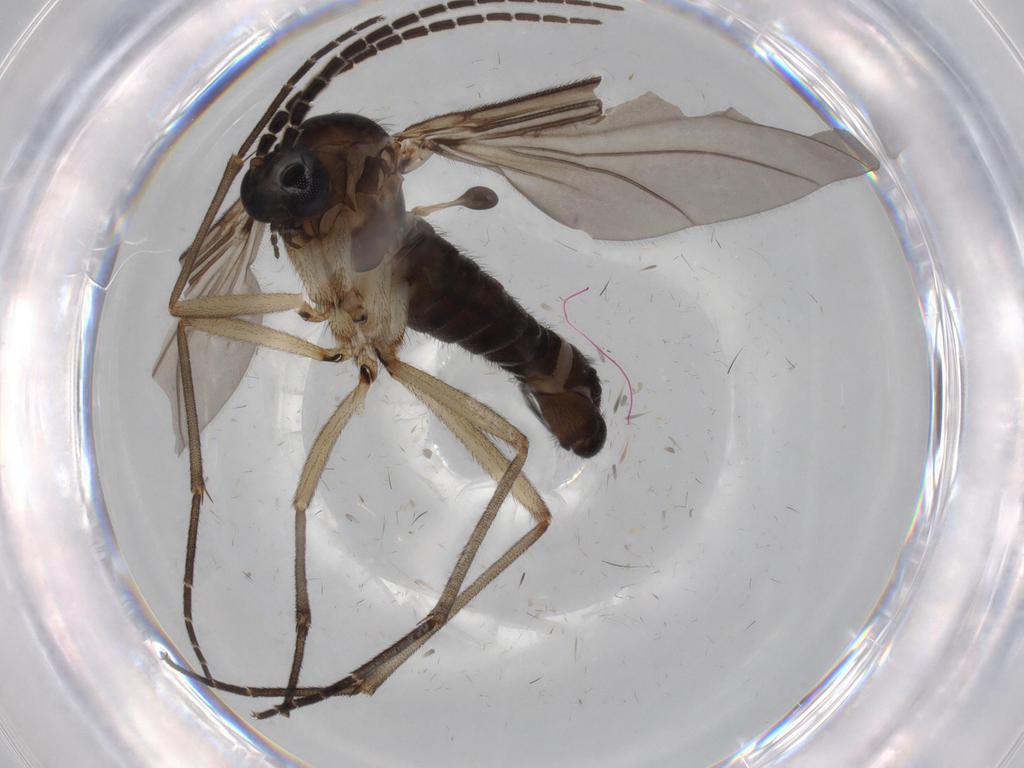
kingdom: Animalia
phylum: Arthropoda
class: Insecta
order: Diptera
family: Sciaridae
